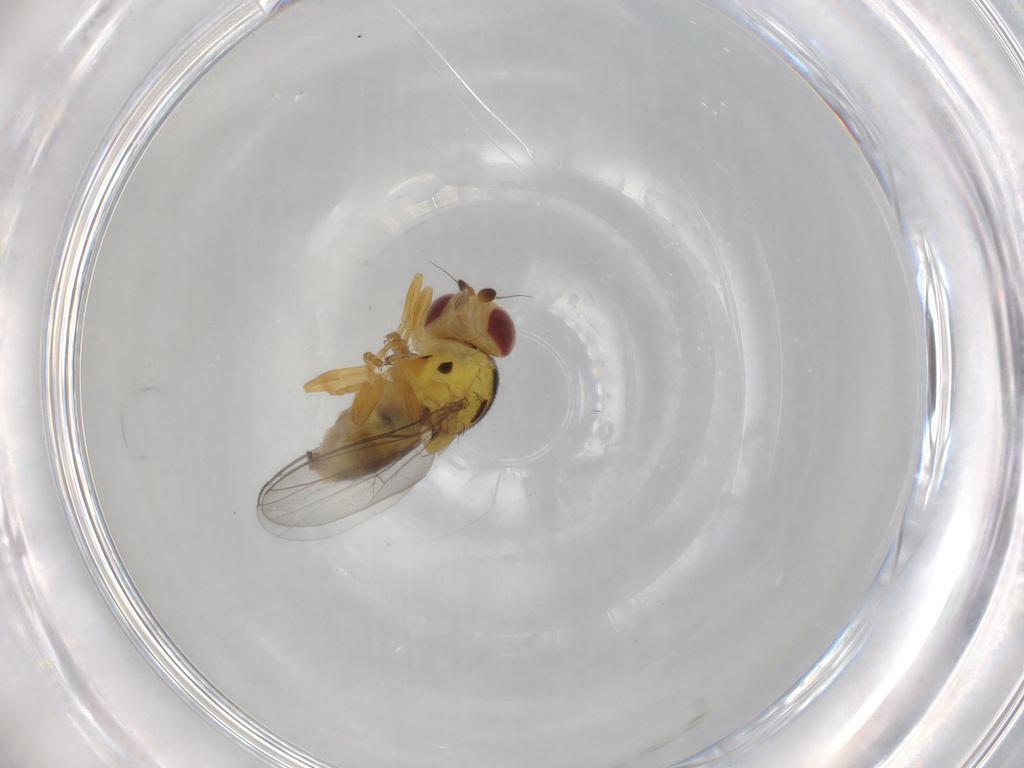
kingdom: Animalia
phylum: Arthropoda
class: Insecta
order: Diptera
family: Chloropidae
